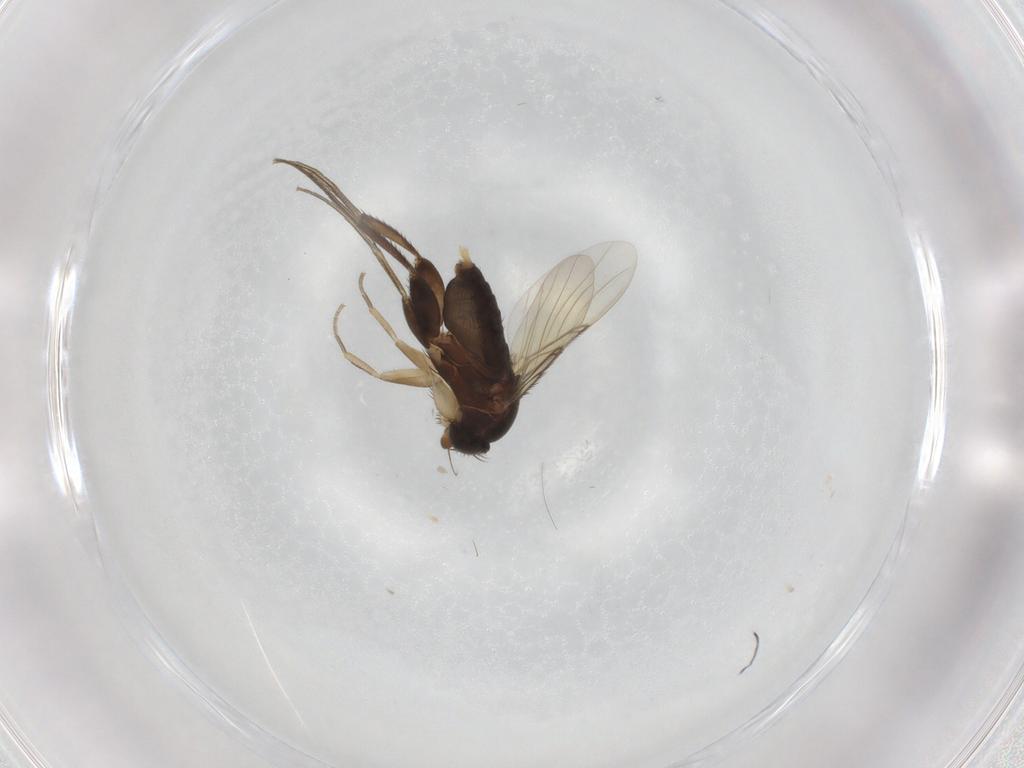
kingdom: Animalia
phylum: Arthropoda
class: Insecta
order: Diptera
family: Phoridae
